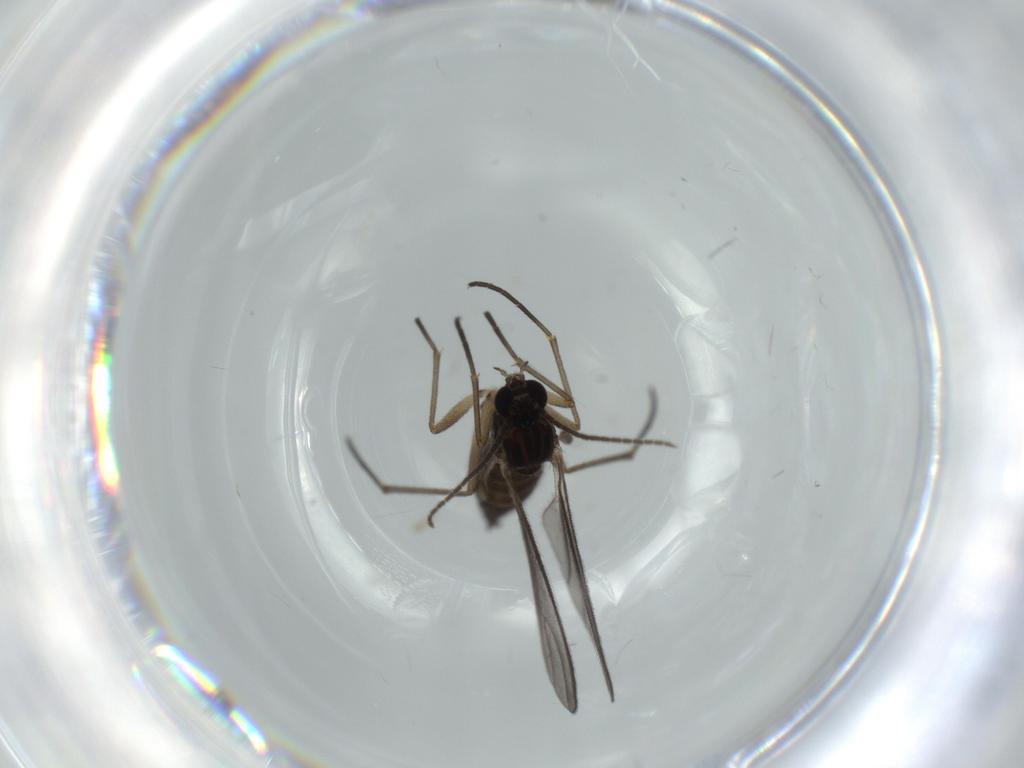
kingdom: Animalia
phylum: Arthropoda
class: Insecta
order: Diptera
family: Sciaridae
